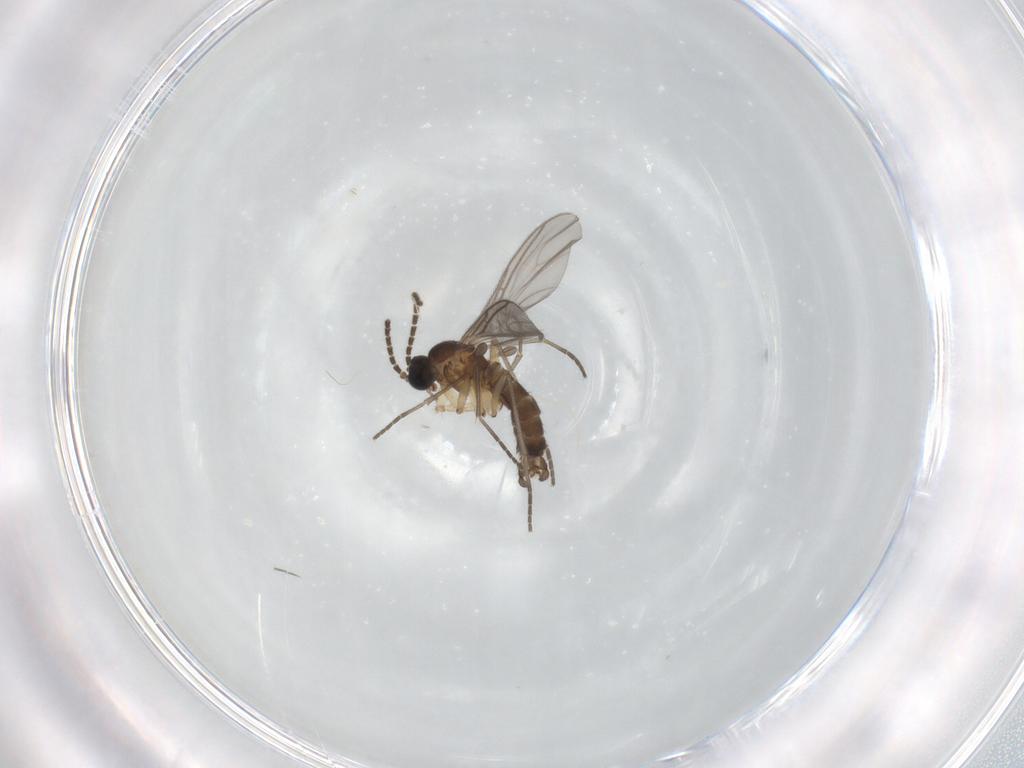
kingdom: Animalia
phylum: Arthropoda
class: Insecta
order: Diptera
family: Sciaridae
